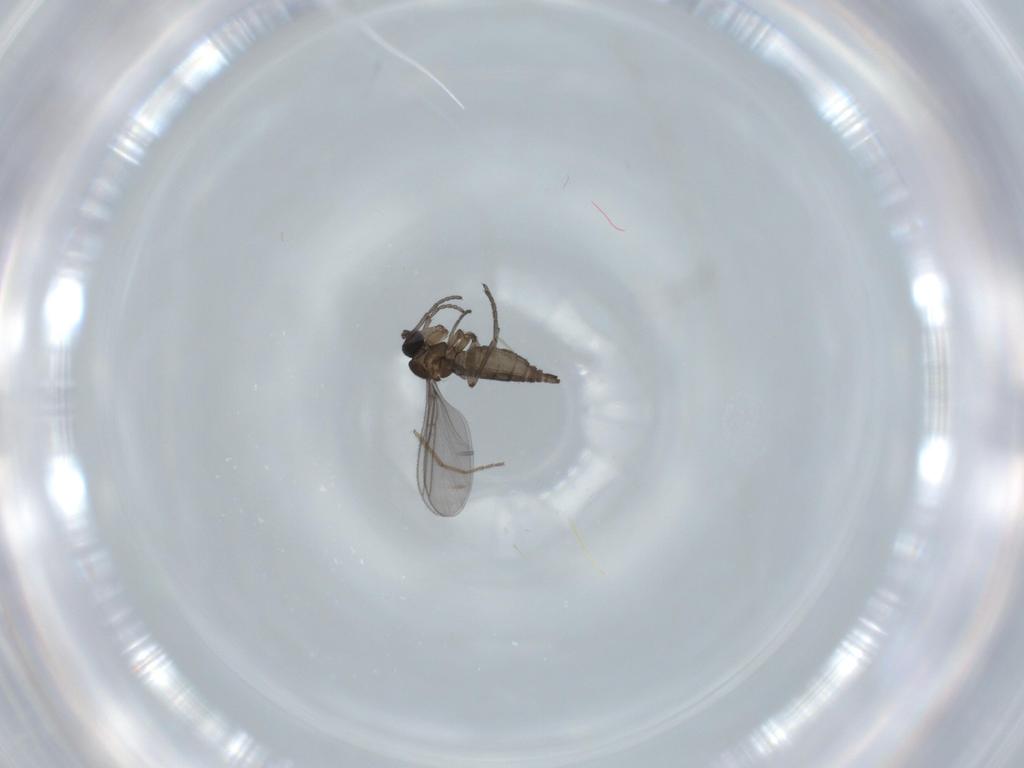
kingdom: Animalia
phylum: Arthropoda
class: Insecta
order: Diptera
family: Chironomidae
